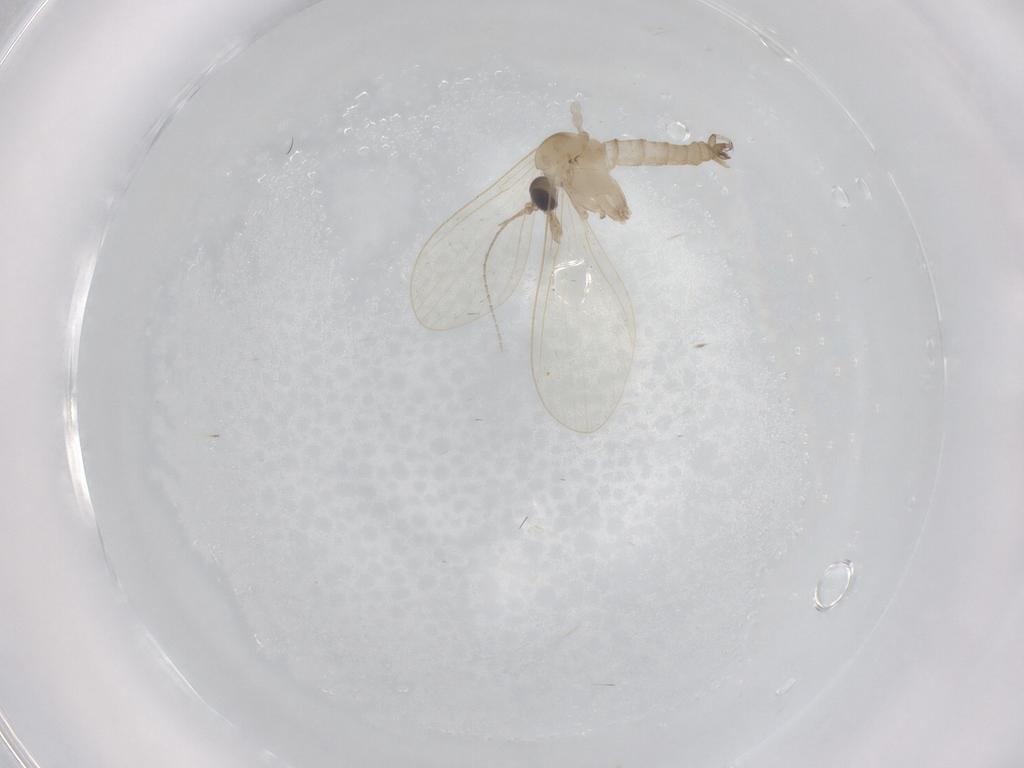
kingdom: Animalia
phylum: Arthropoda
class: Insecta
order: Diptera
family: Psychodidae
